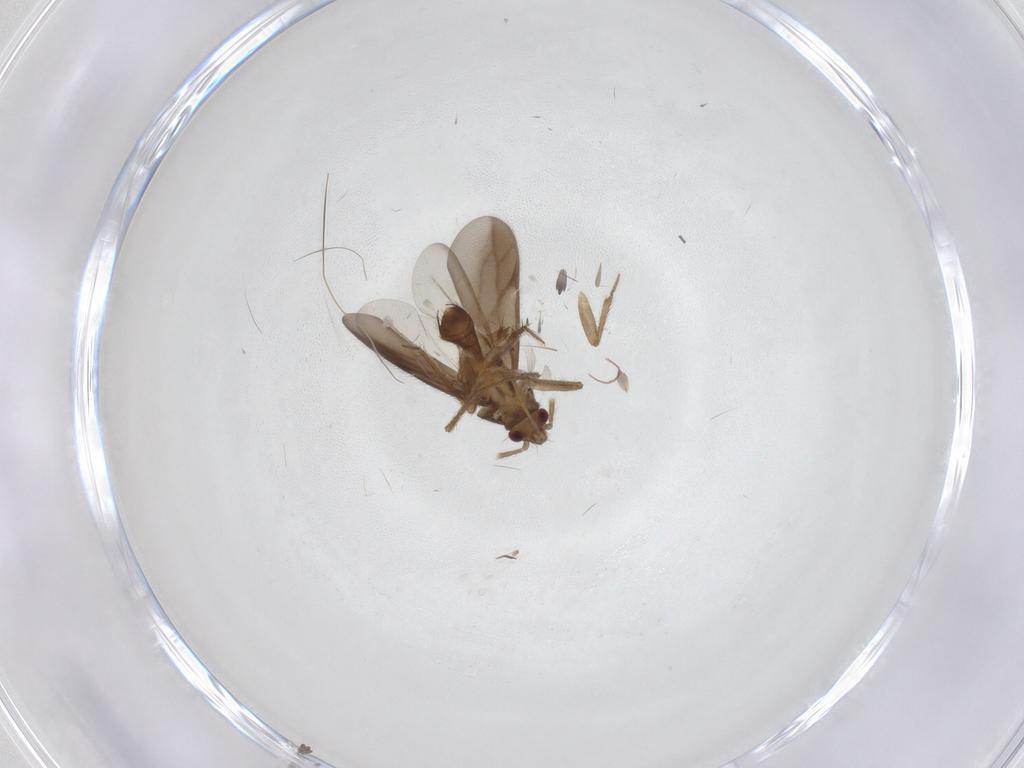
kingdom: Animalia
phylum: Arthropoda
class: Insecta
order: Hemiptera
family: Ceratocombidae
